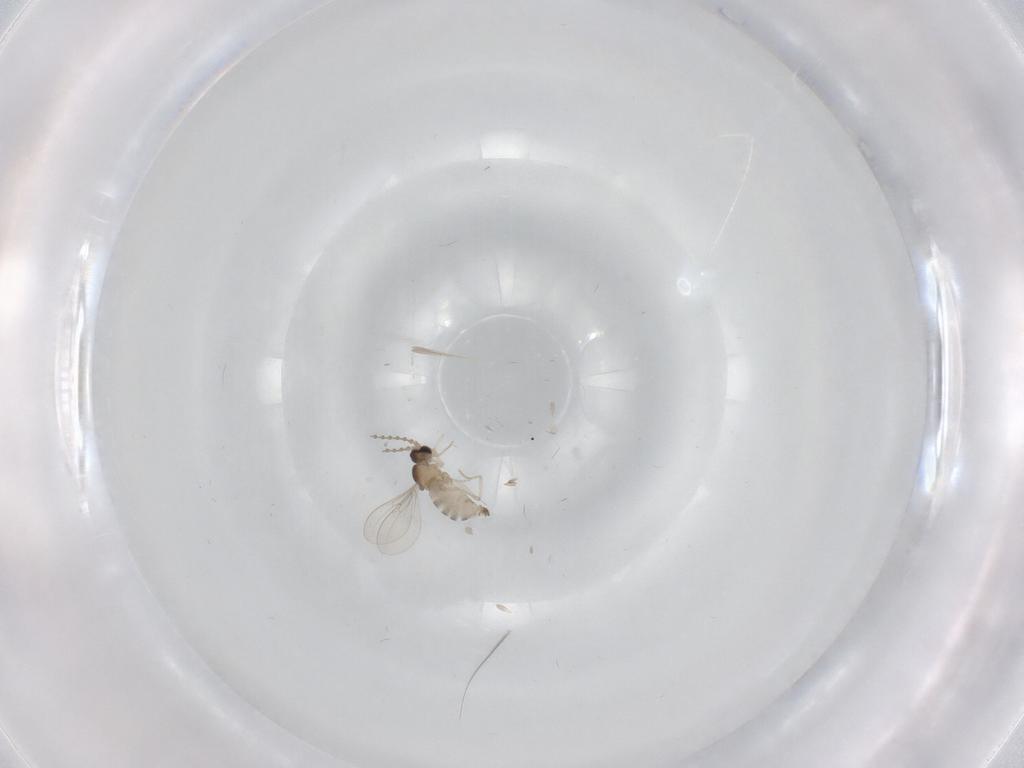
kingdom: Animalia
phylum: Arthropoda
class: Insecta
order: Diptera
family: Cecidomyiidae
